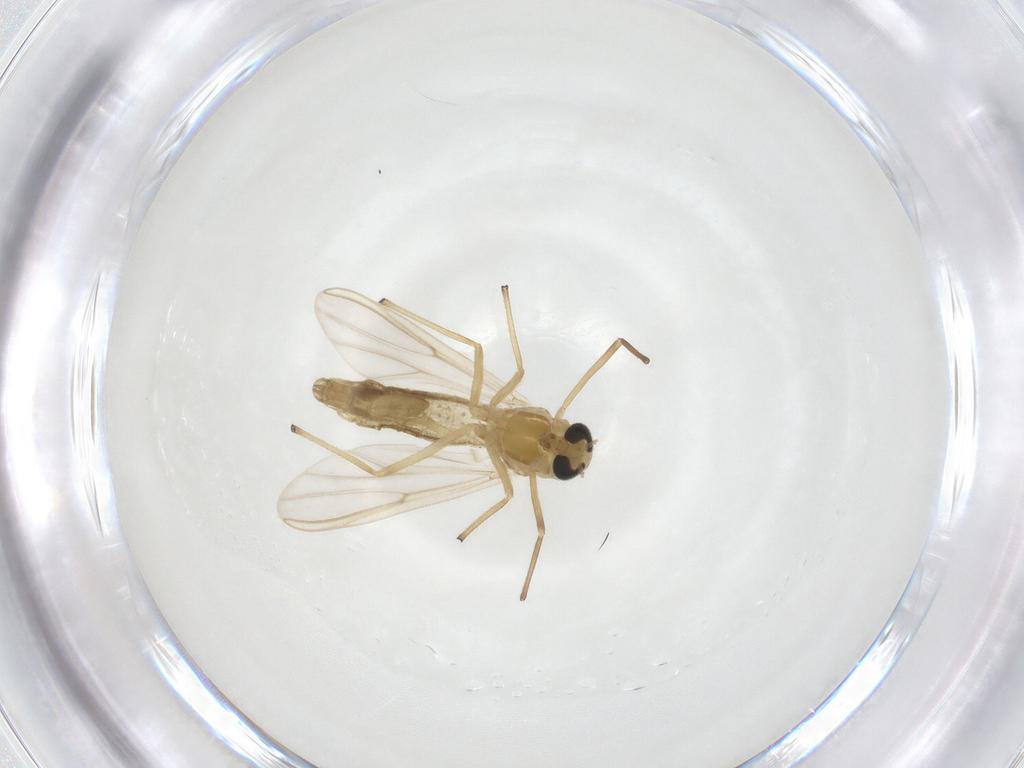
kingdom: Animalia
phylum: Arthropoda
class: Insecta
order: Diptera
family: Chironomidae
